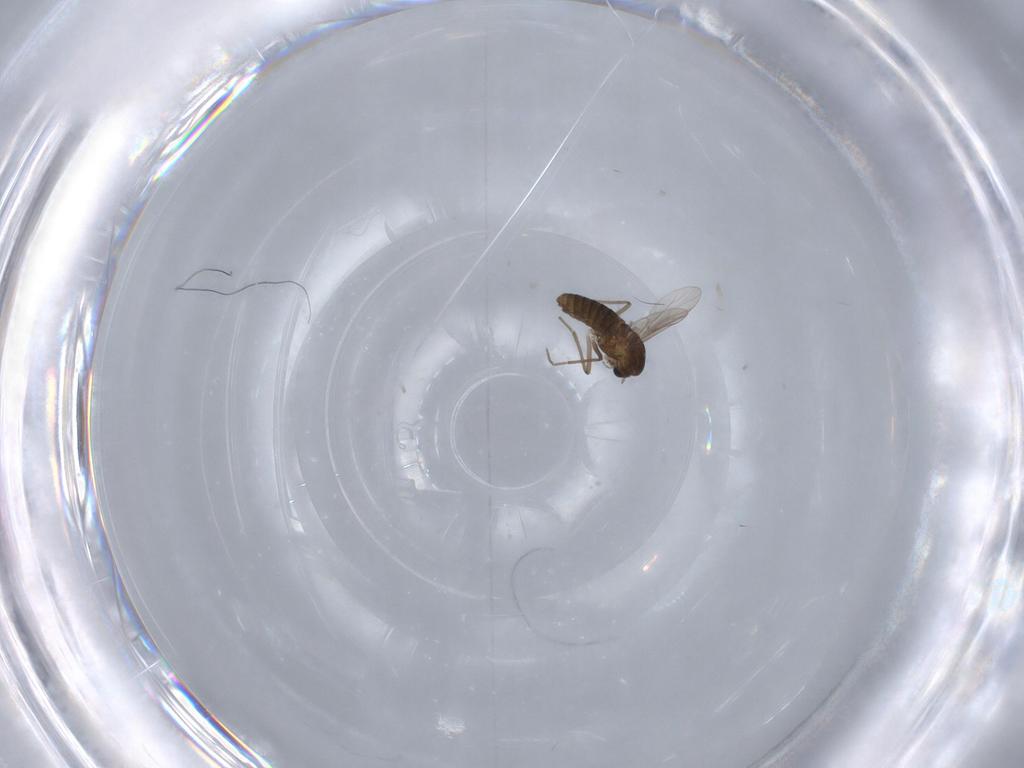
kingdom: Animalia
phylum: Arthropoda
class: Insecta
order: Diptera
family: Chironomidae
